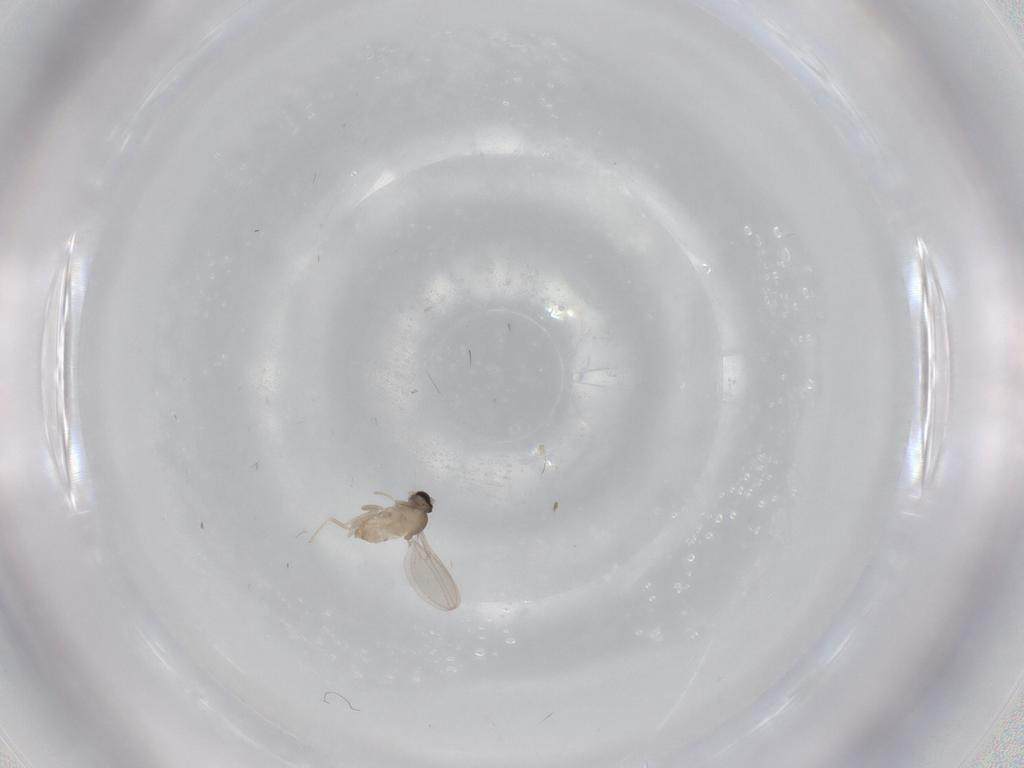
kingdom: Animalia
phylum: Arthropoda
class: Insecta
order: Diptera
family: Cecidomyiidae
